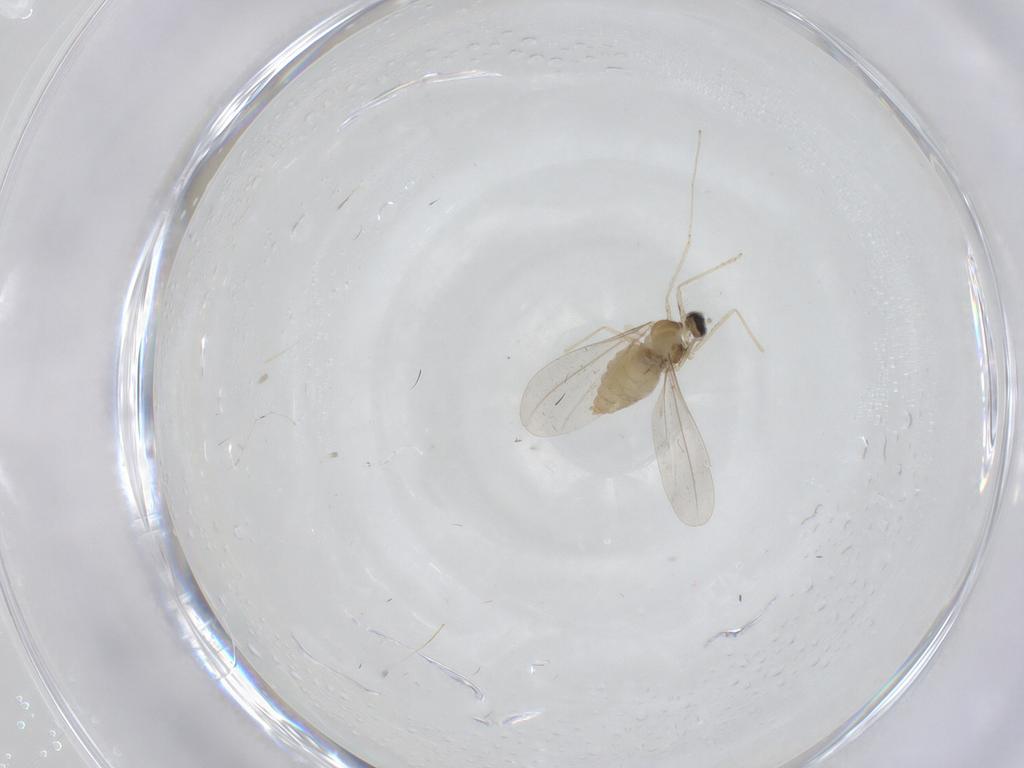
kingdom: Animalia
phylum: Arthropoda
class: Insecta
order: Diptera
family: Cecidomyiidae
